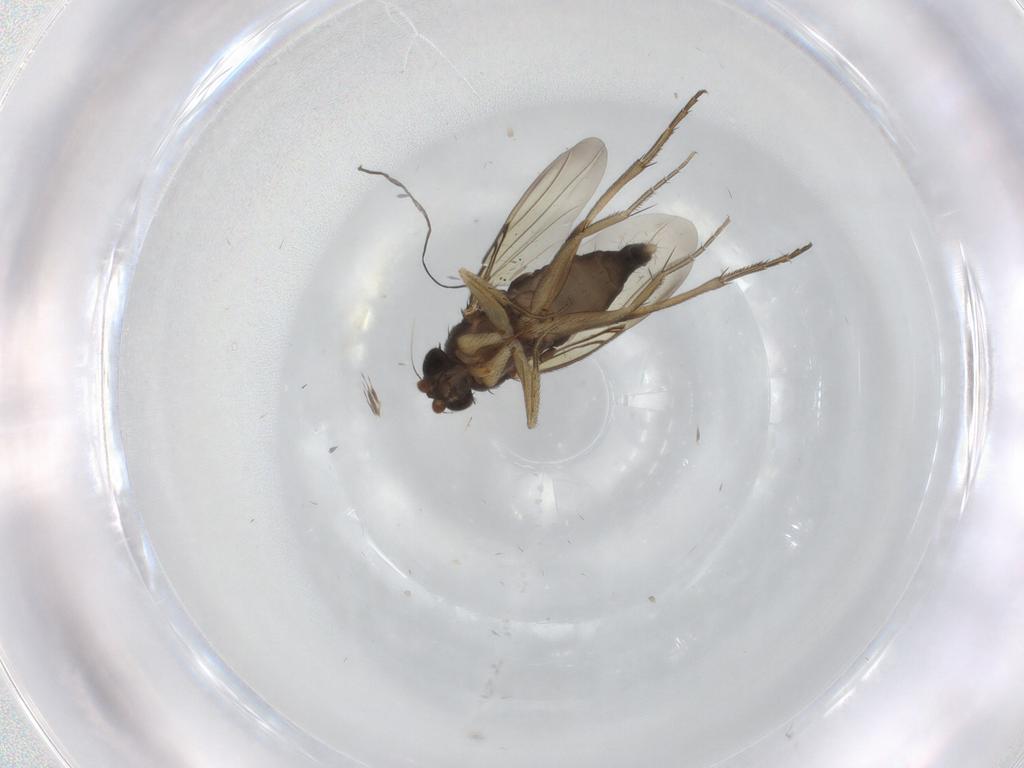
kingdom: Animalia
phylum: Arthropoda
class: Insecta
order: Diptera
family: Phoridae
